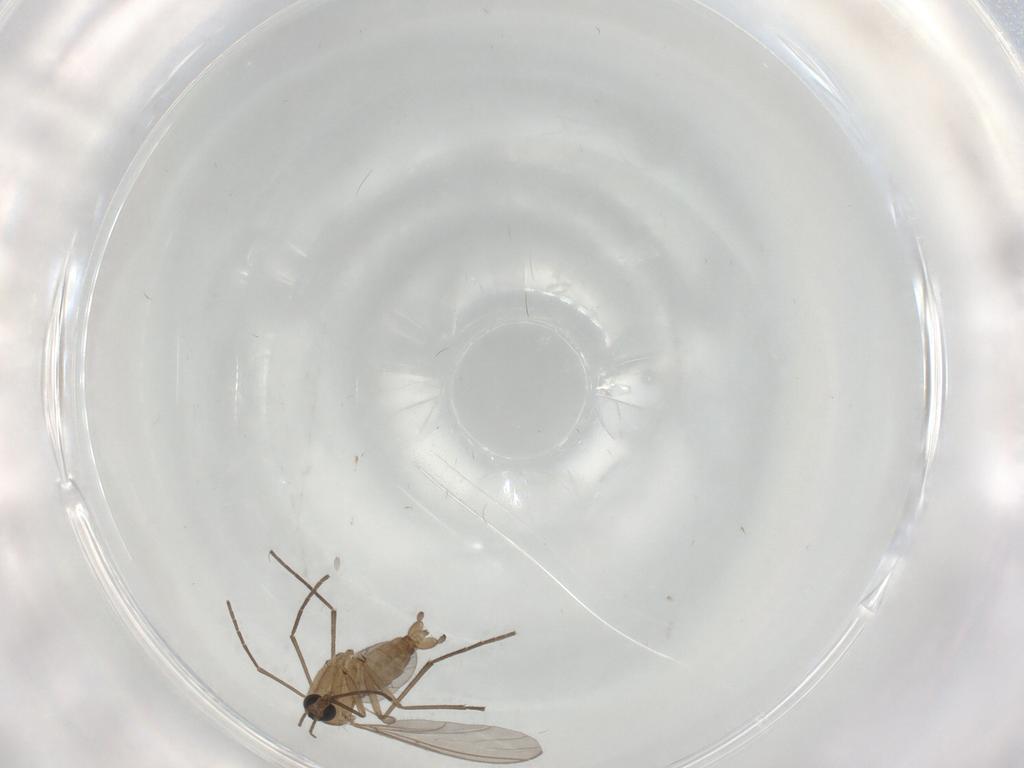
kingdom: Animalia
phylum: Arthropoda
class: Insecta
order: Diptera
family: Sciaridae
